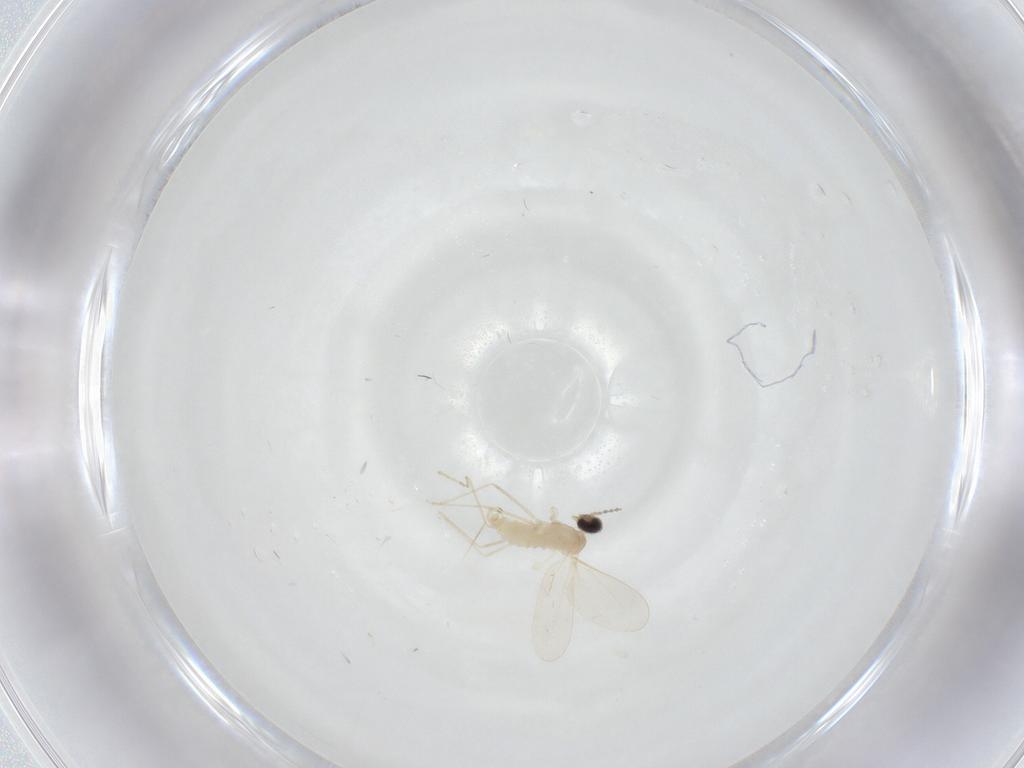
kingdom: Animalia
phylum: Arthropoda
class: Insecta
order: Diptera
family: Cecidomyiidae
